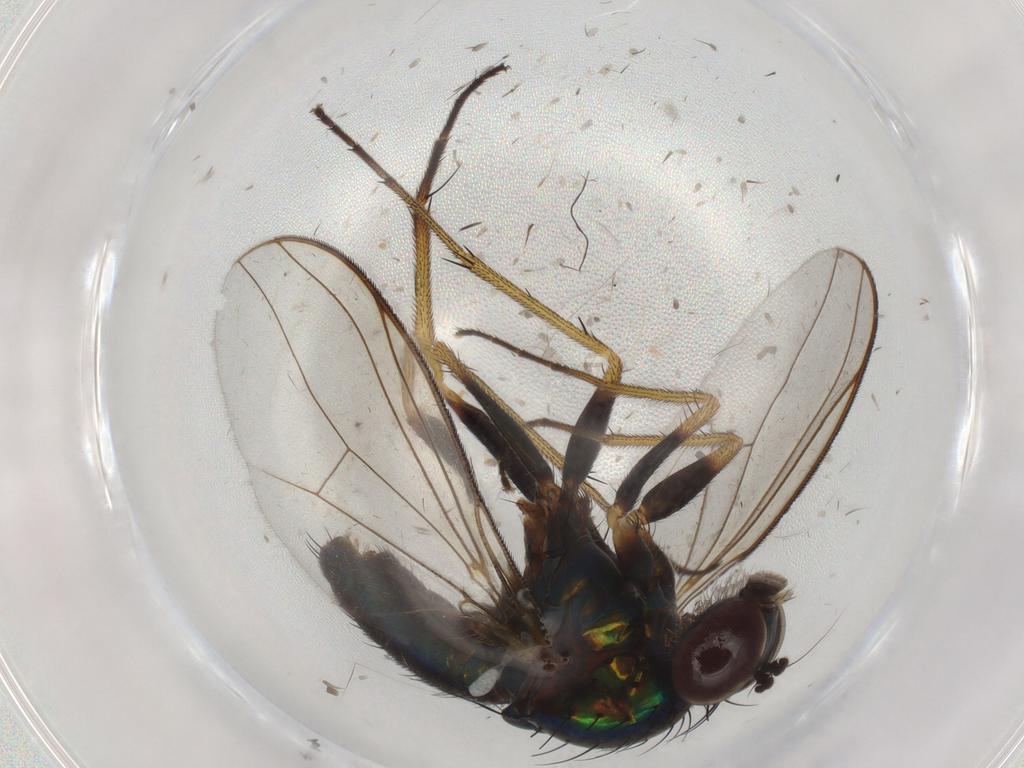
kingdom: Animalia
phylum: Arthropoda
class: Insecta
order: Diptera
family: Dolichopodidae
